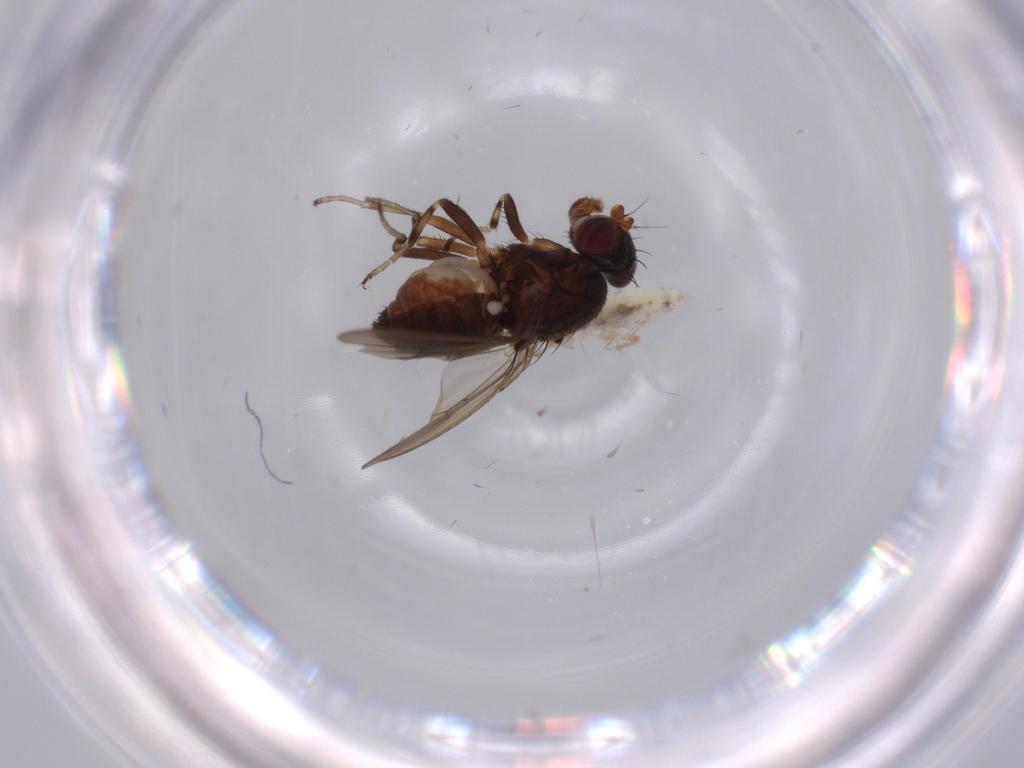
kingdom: Animalia
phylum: Arthropoda
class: Insecta
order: Diptera
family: Heleomyzidae
